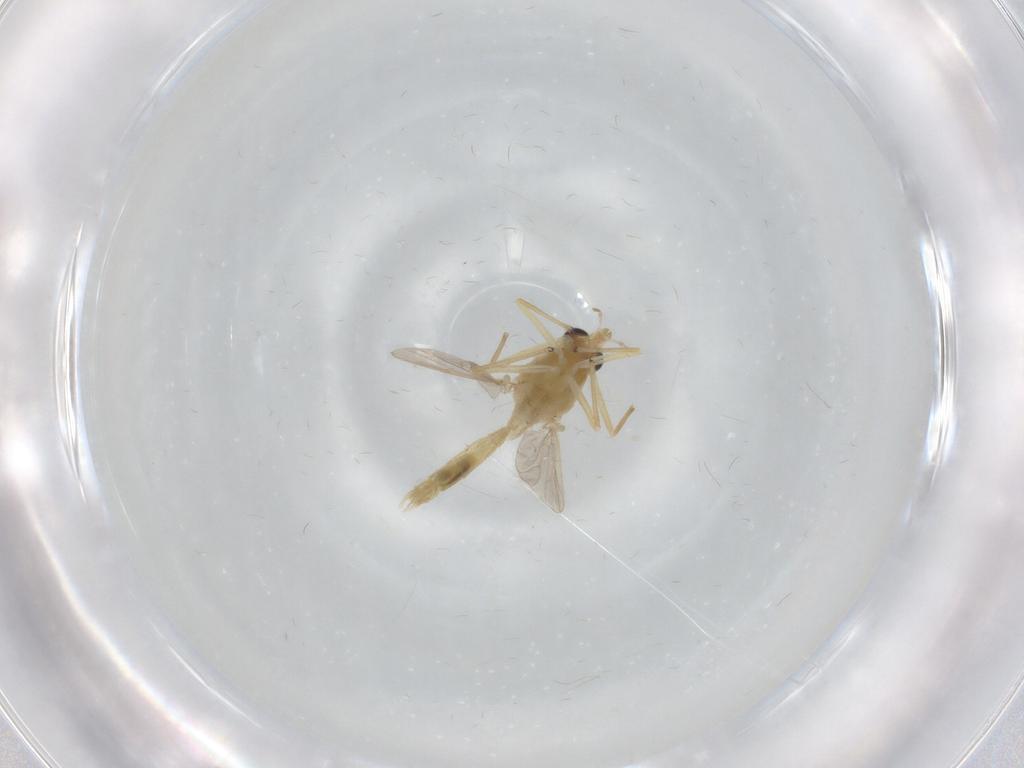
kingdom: Animalia
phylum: Arthropoda
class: Insecta
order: Diptera
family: Chironomidae
